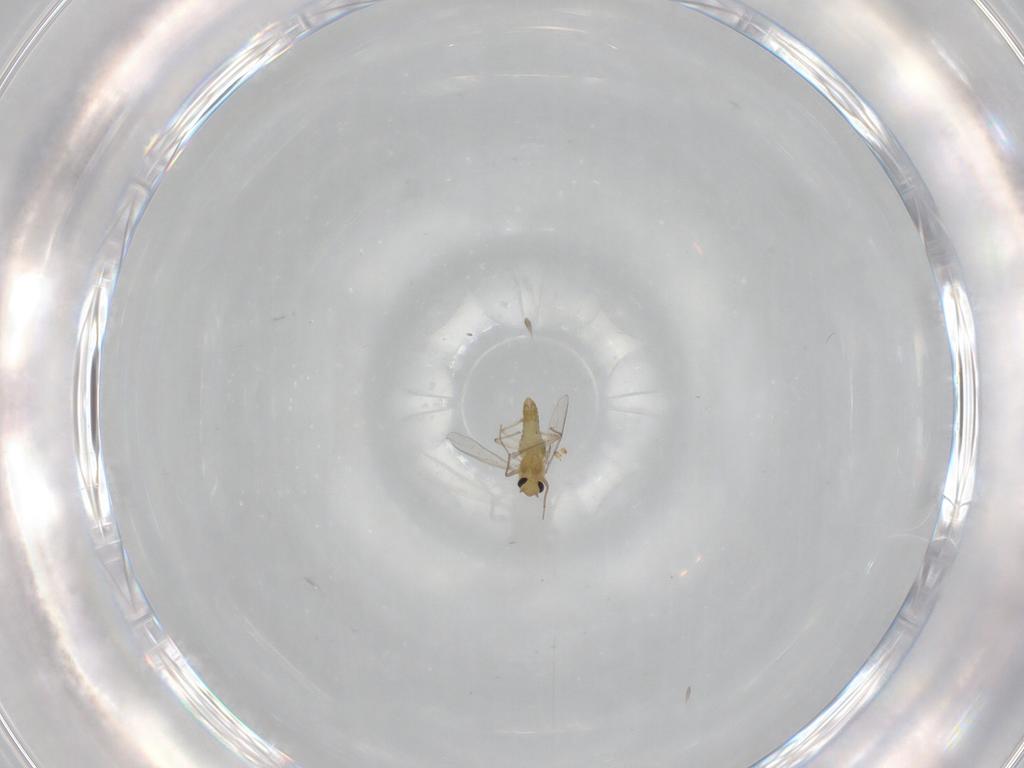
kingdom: Animalia
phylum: Arthropoda
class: Insecta
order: Diptera
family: Chironomidae
